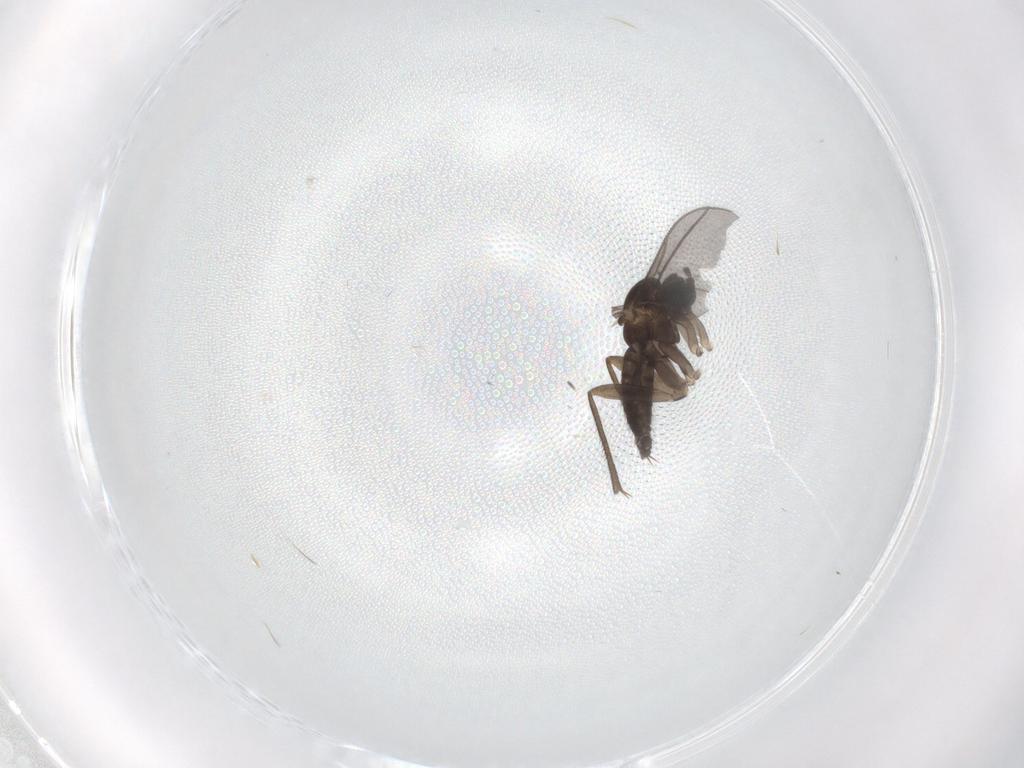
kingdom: Animalia
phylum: Arthropoda
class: Insecta
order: Diptera
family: Sciaridae
